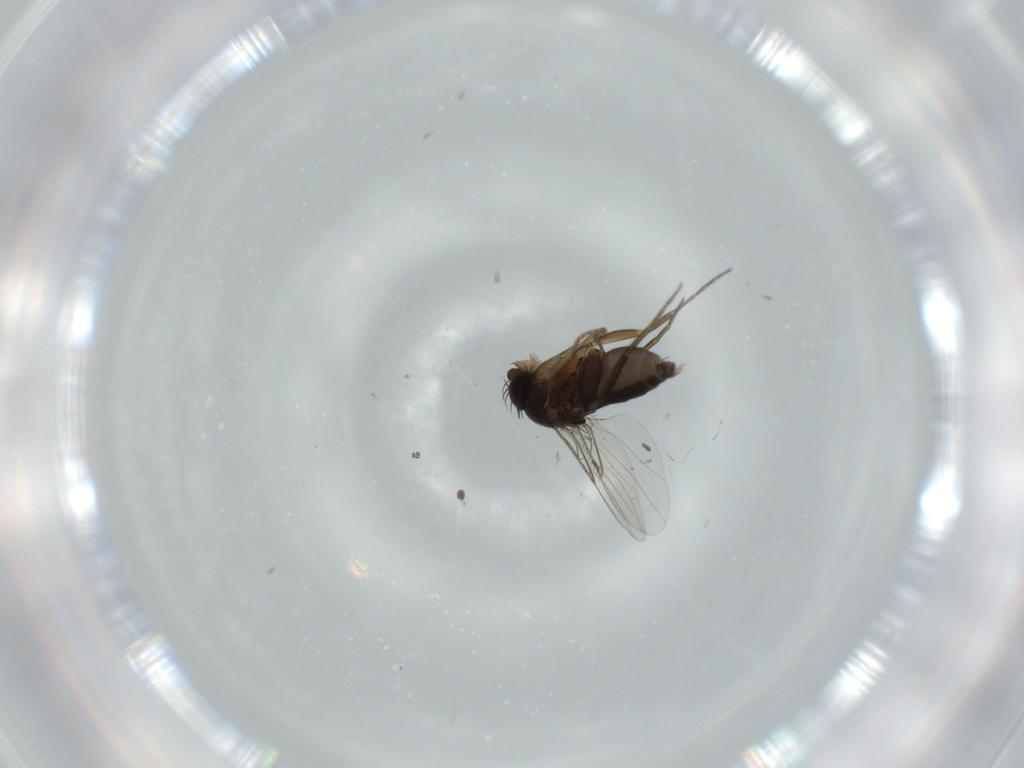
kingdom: Animalia
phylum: Arthropoda
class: Insecta
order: Diptera
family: Phoridae
